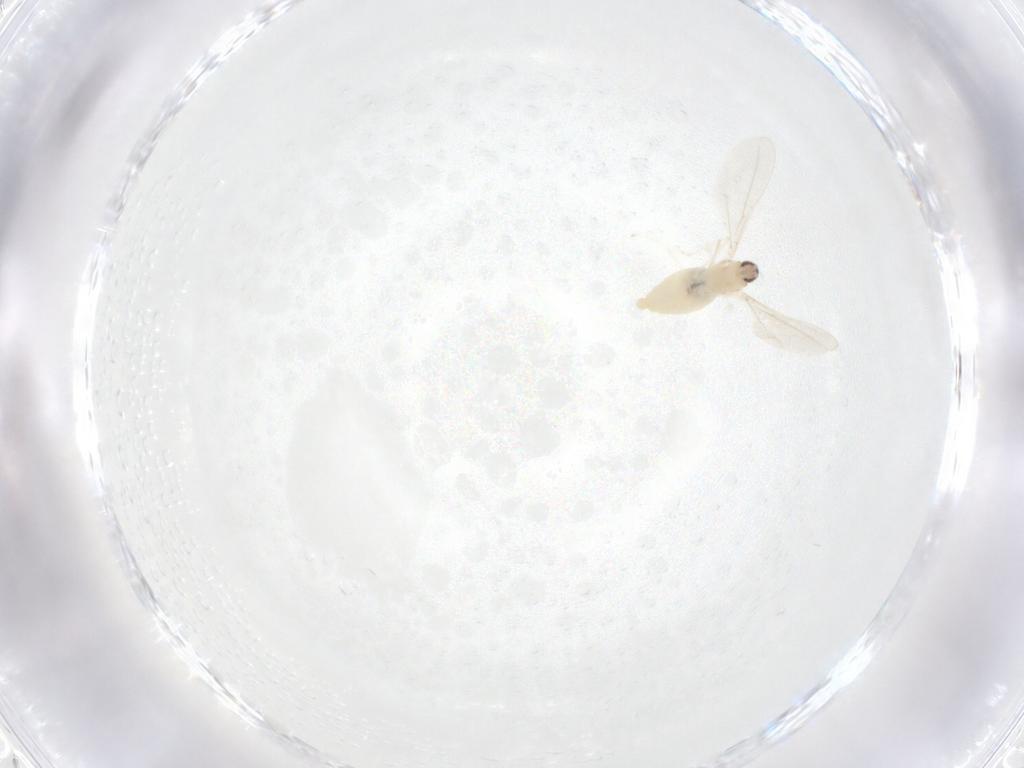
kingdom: Animalia
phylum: Arthropoda
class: Insecta
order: Diptera
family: Cecidomyiidae
